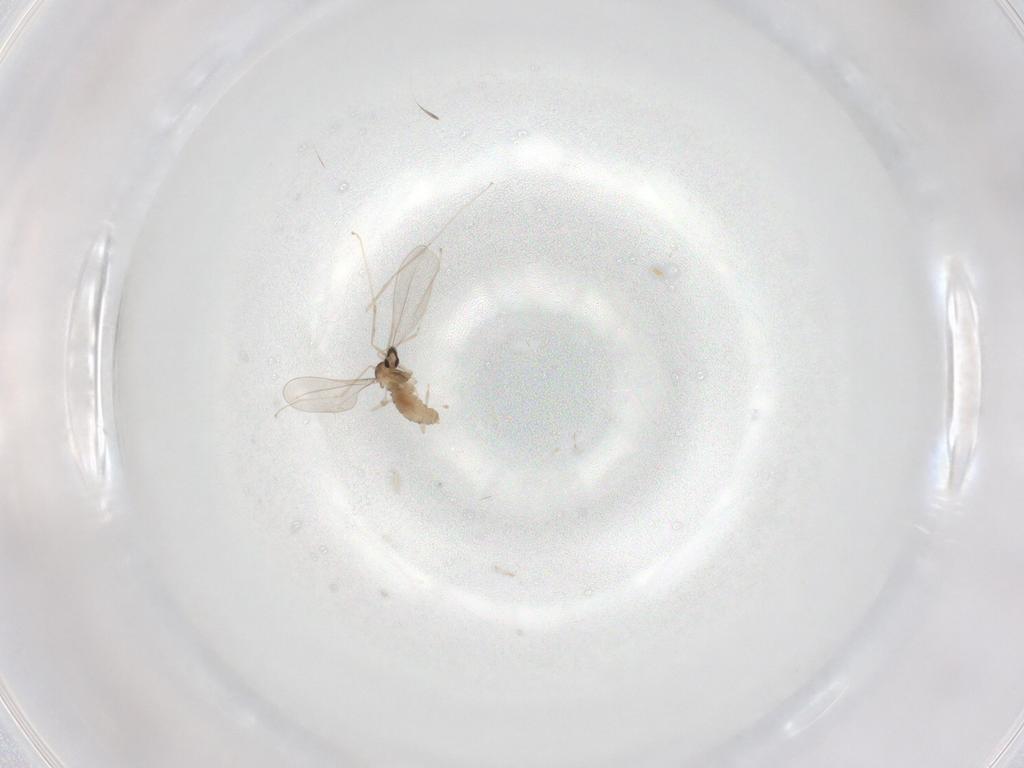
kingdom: Animalia
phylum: Arthropoda
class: Insecta
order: Diptera
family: Cecidomyiidae
